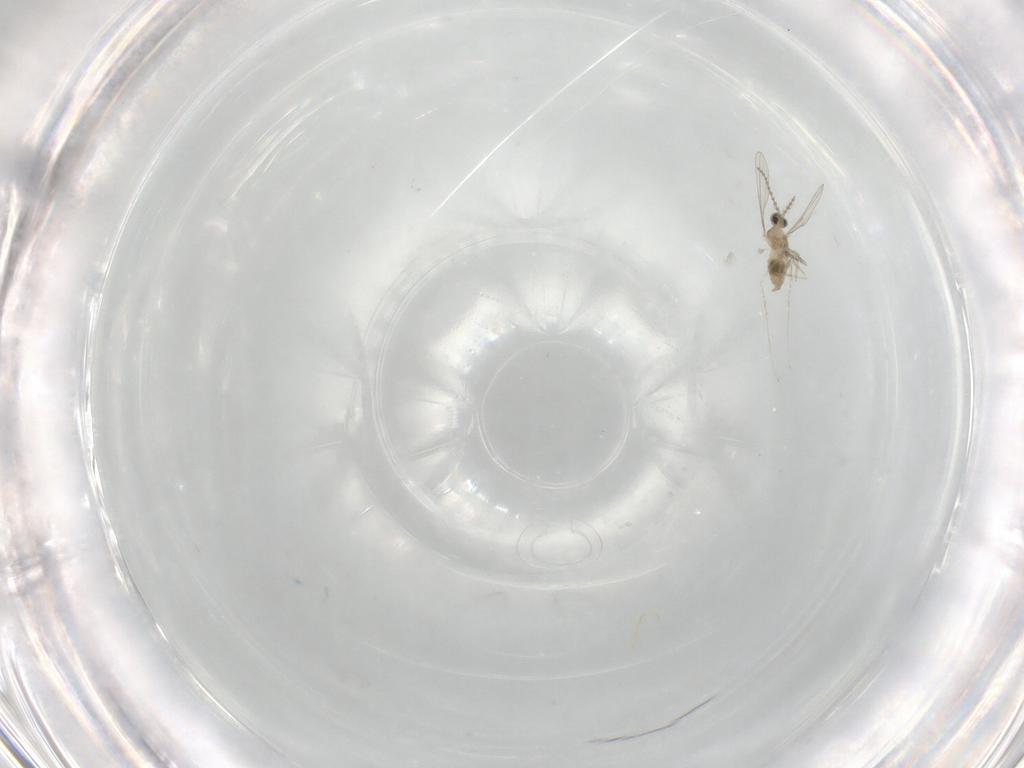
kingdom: Animalia
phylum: Arthropoda
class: Insecta
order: Diptera
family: Cecidomyiidae
